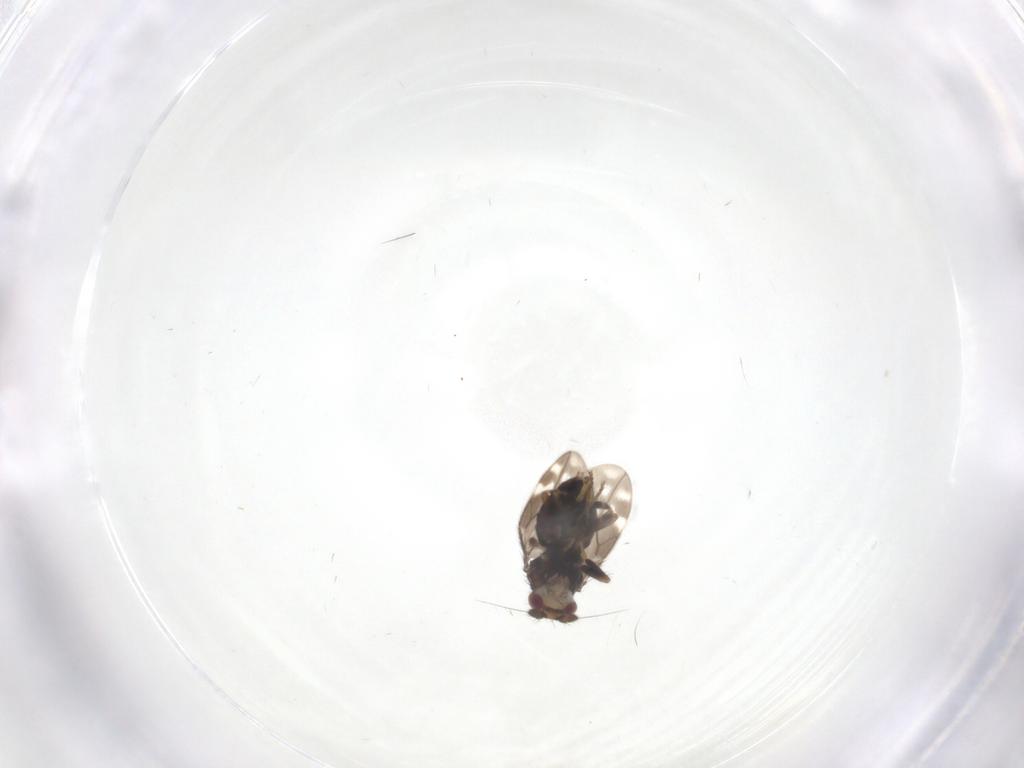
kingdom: Animalia
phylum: Arthropoda
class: Insecta
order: Diptera
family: Sphaeroceridae
